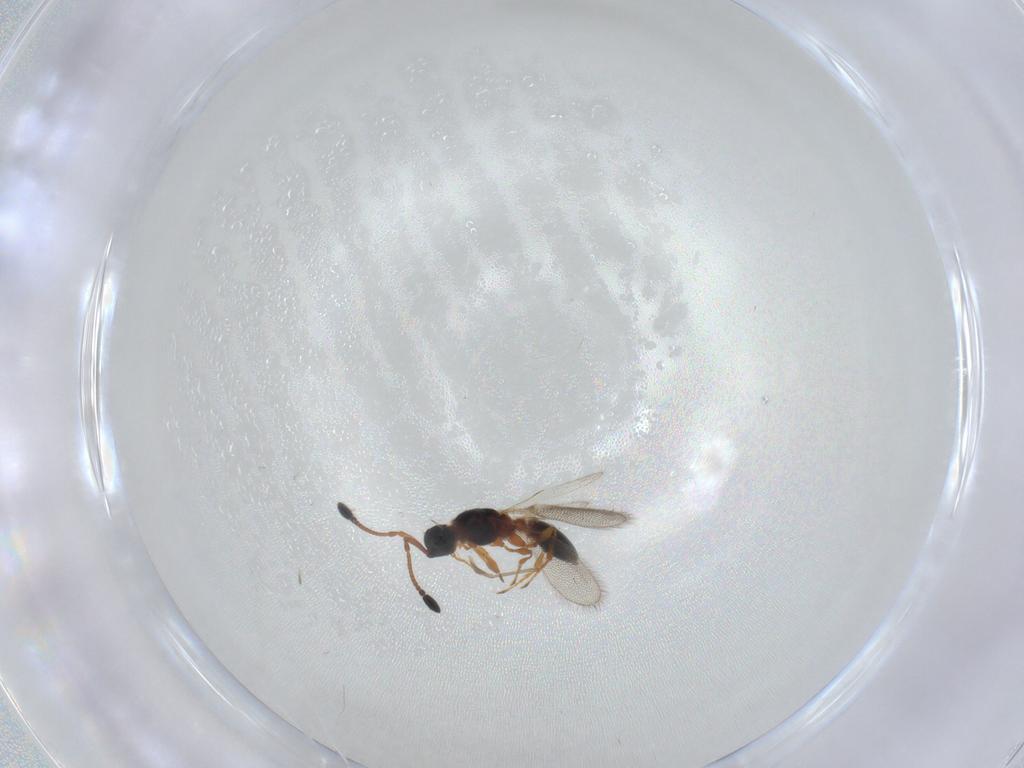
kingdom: Animalia
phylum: Arthropoda
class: Insecta
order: Hymenoptera
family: Diapriidae
